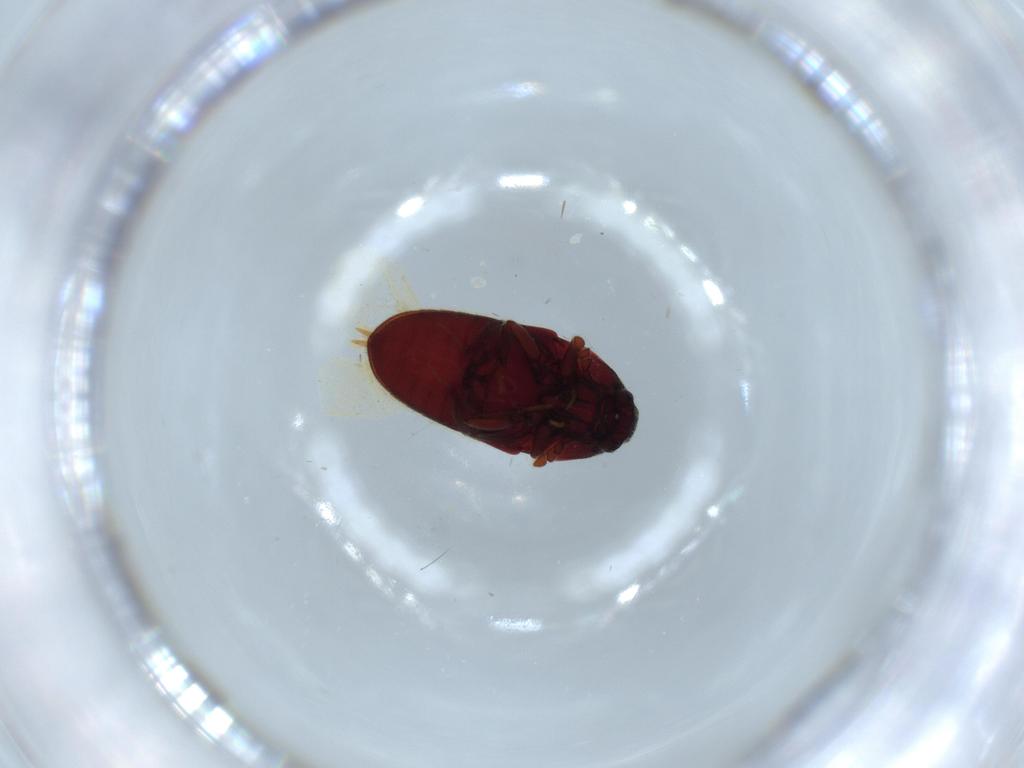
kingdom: Animalia
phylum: Arthropoda
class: Insecta
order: Coleoptera
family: Throscidae
